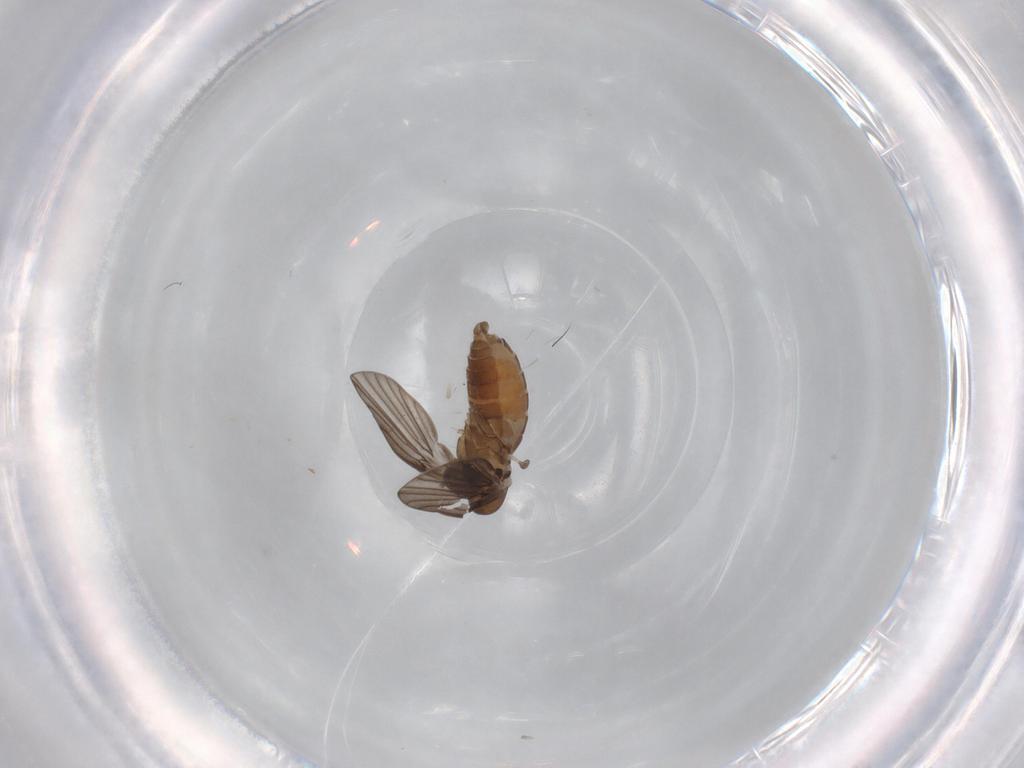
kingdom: Animalia
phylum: Arthropoda
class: Insecta
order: Diptera
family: Psychodidae
